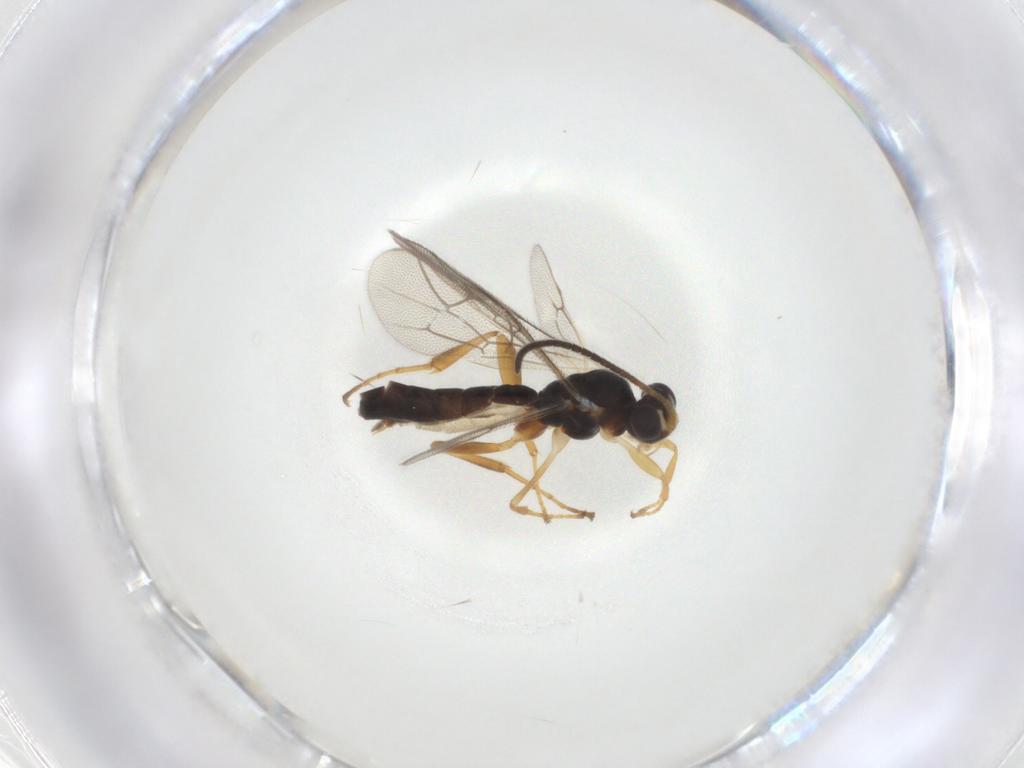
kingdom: Animalia
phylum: Arthropoda
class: Insecta
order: Hymenoptera
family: Ichneumonidae
